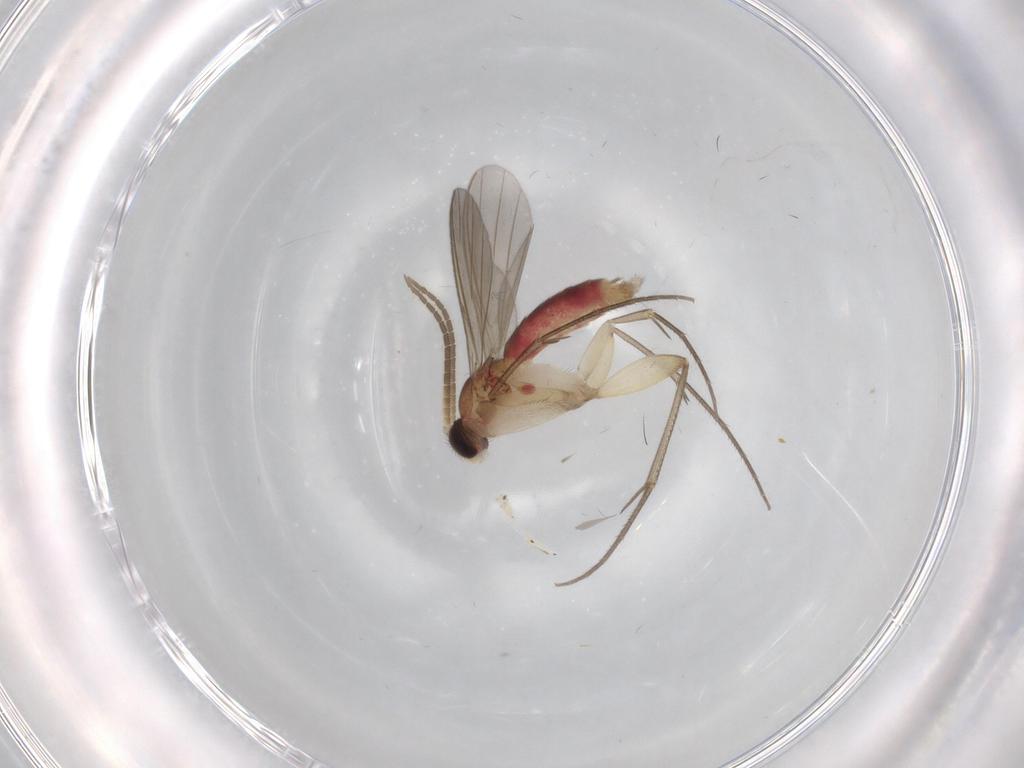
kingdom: Animalia
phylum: Arthropoda
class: Insecta
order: Diptera
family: Mycetophilidae
